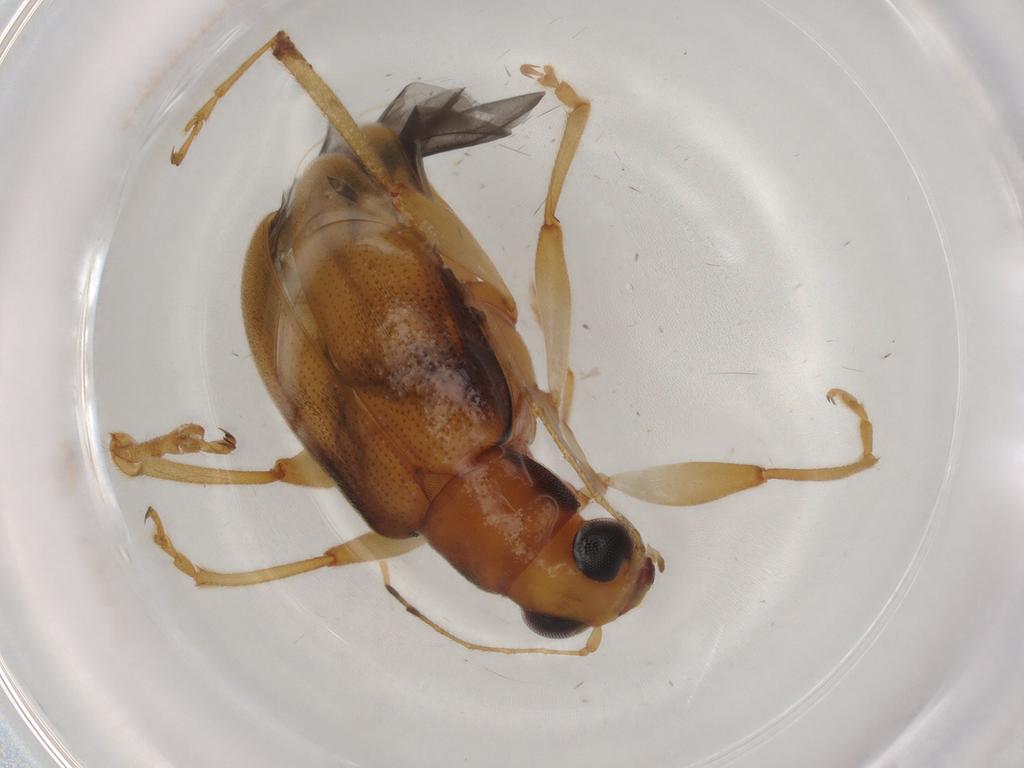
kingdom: Animalia
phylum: Arthropoda
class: Insecta
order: Coleoptera
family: Chrysomelidae
